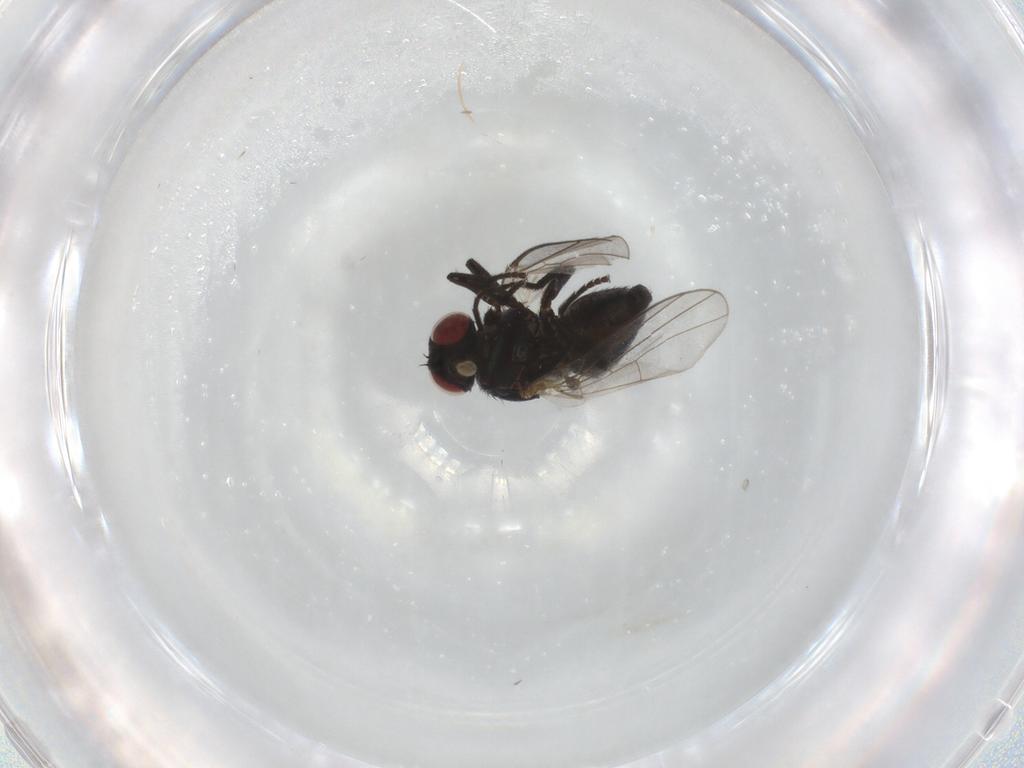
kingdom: Animalia
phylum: Arthropoda
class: Insecta
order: Diptera
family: Agromyzidae
